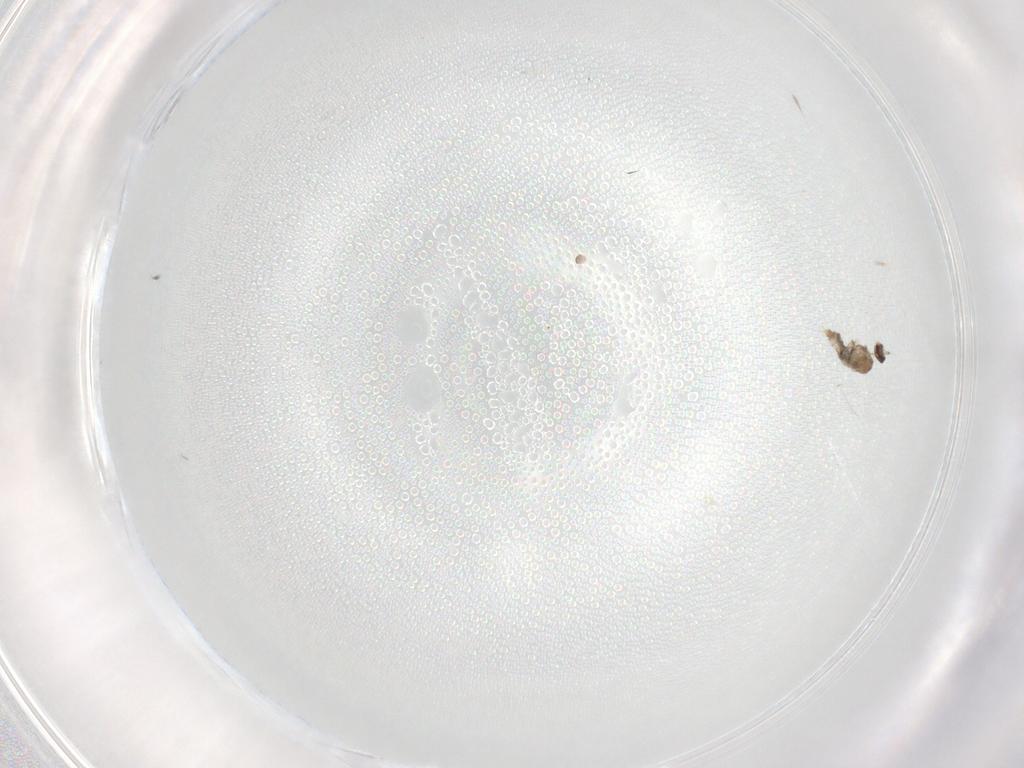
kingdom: Animalia
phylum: Arthropoda
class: Insecta
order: Diptera
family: Cecidomyiidae
